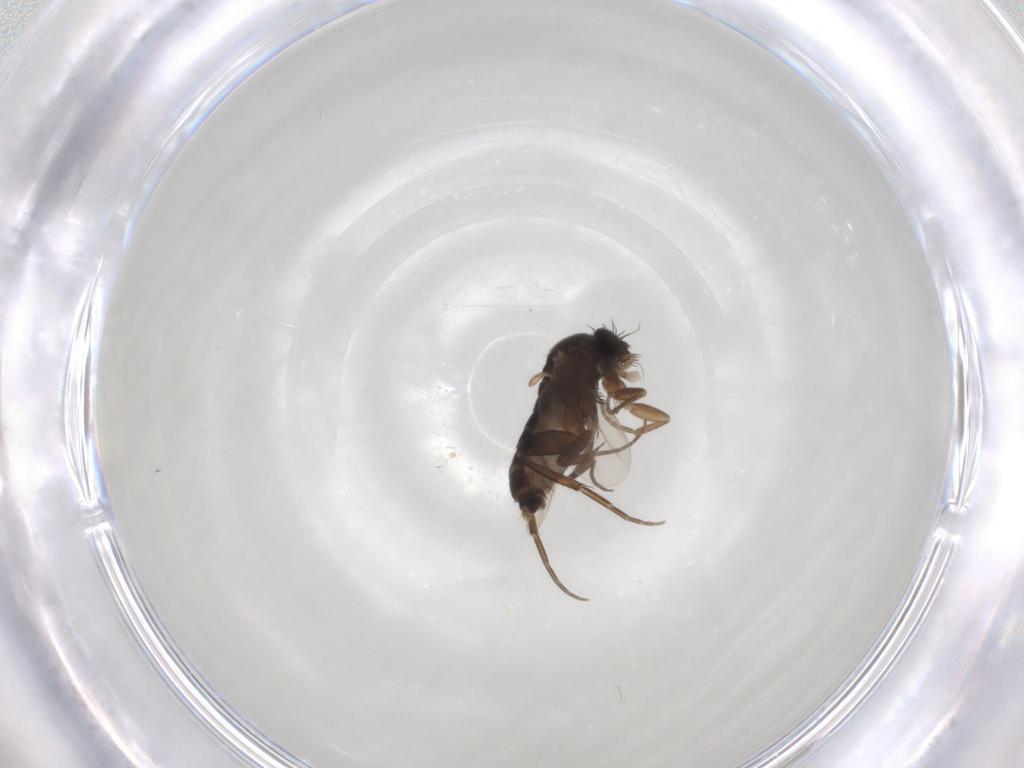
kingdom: Animalia
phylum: Arthropoda
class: Insecta
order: Diptera
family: Phoridae
